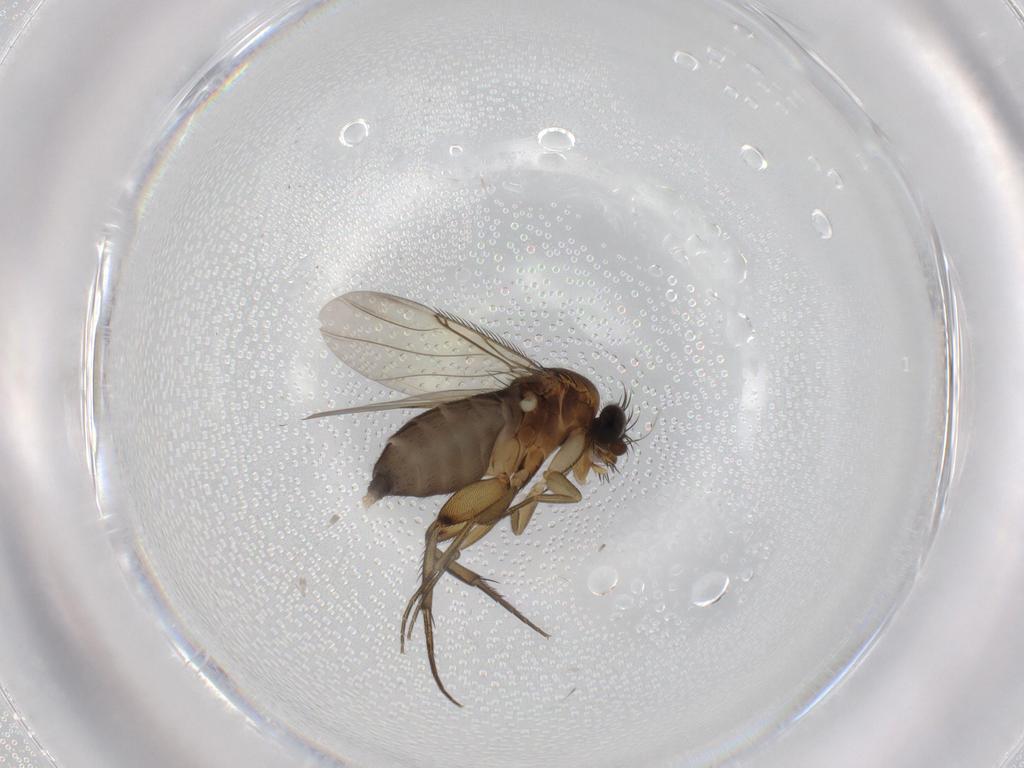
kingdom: Animalia
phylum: Arthropoda
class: Insecta
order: Diptera
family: Phoridae
